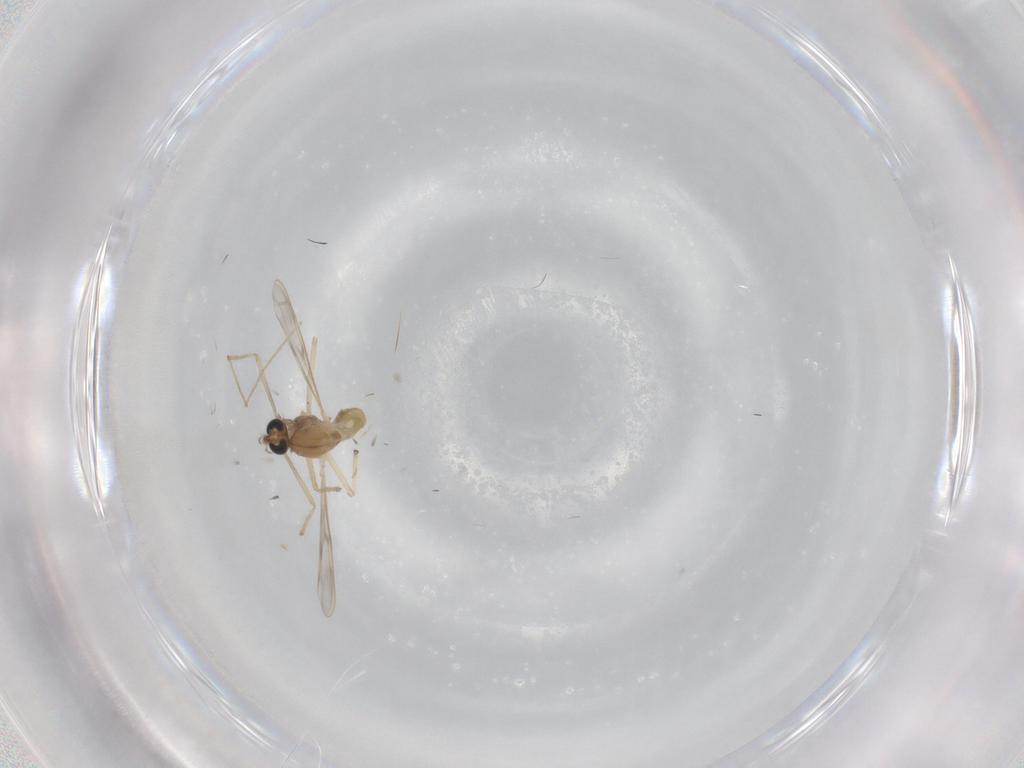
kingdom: Animalia
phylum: Arthropoda
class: Insecta
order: Diptera
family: Chironomidae
